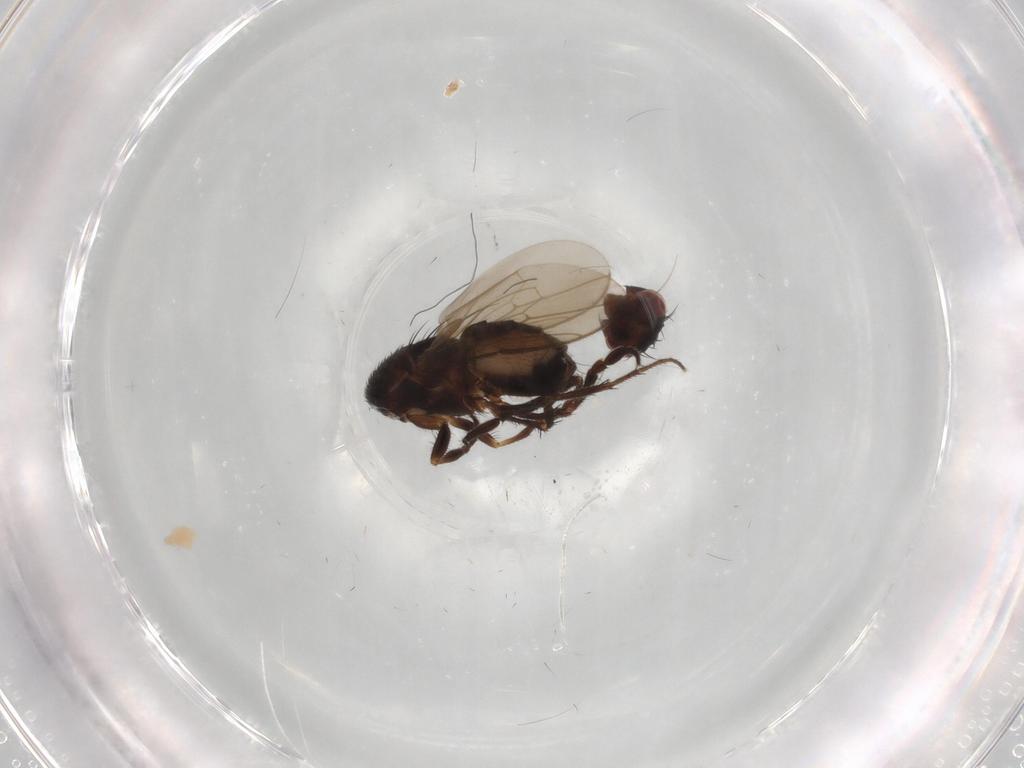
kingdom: Animalia
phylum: Arthropoda
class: Insecta
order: Diptera
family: Sphaeroceridae
